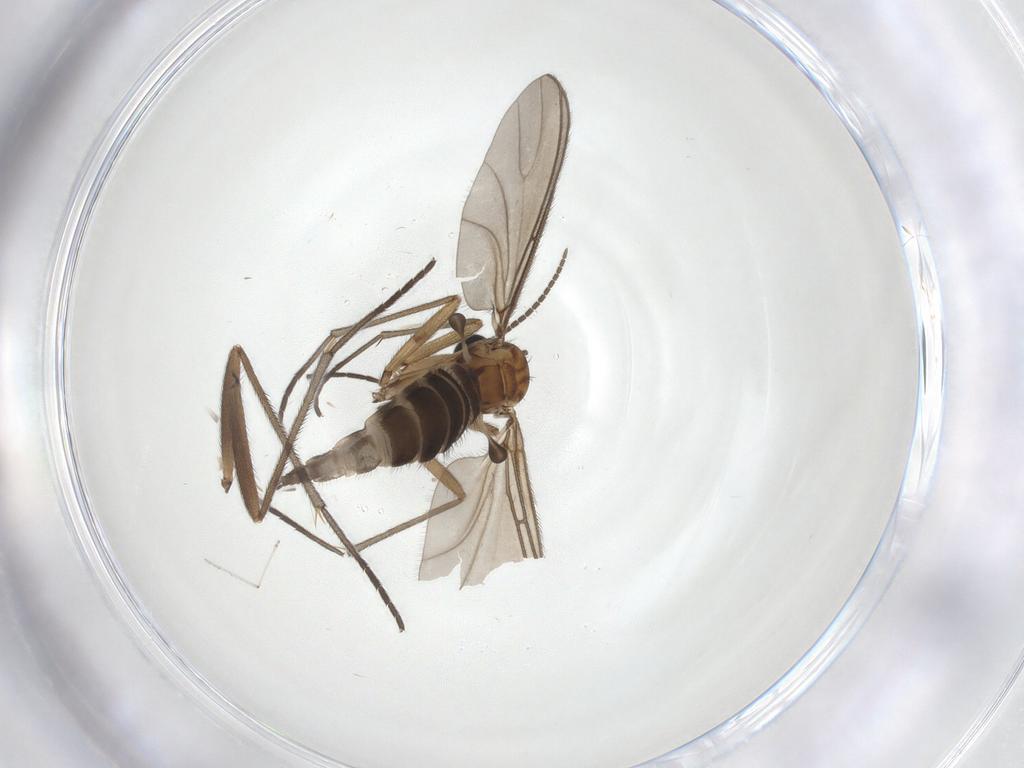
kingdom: Animalia
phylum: Arthropoda
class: Insecta
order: Diptera
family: Sciaridae
